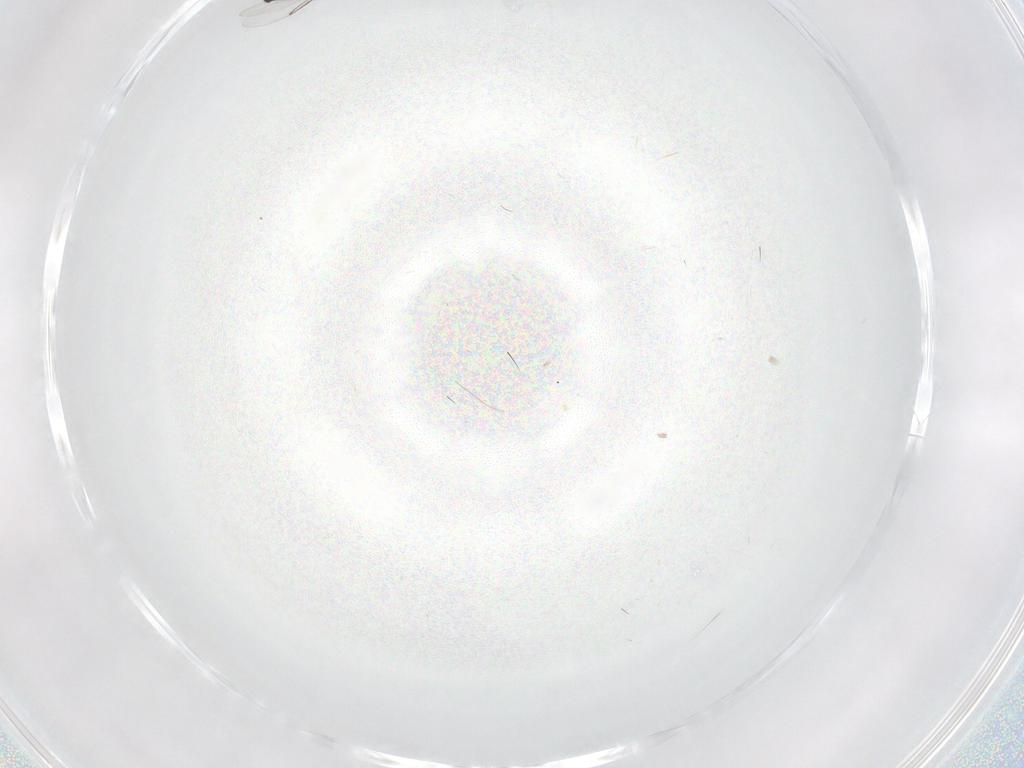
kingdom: Animalia
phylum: Arthropoda
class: Insecta
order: Diptera
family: Phoridae
